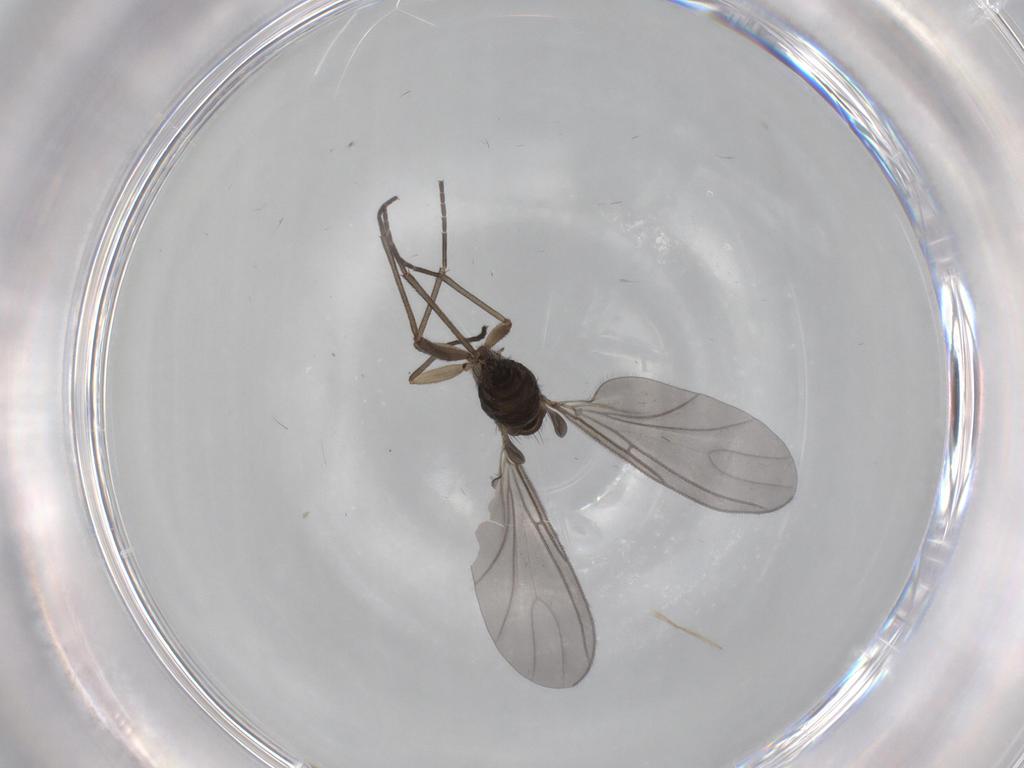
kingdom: Animalia
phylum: Arthropoda
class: Insecta
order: Diptera
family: Sciaridae
